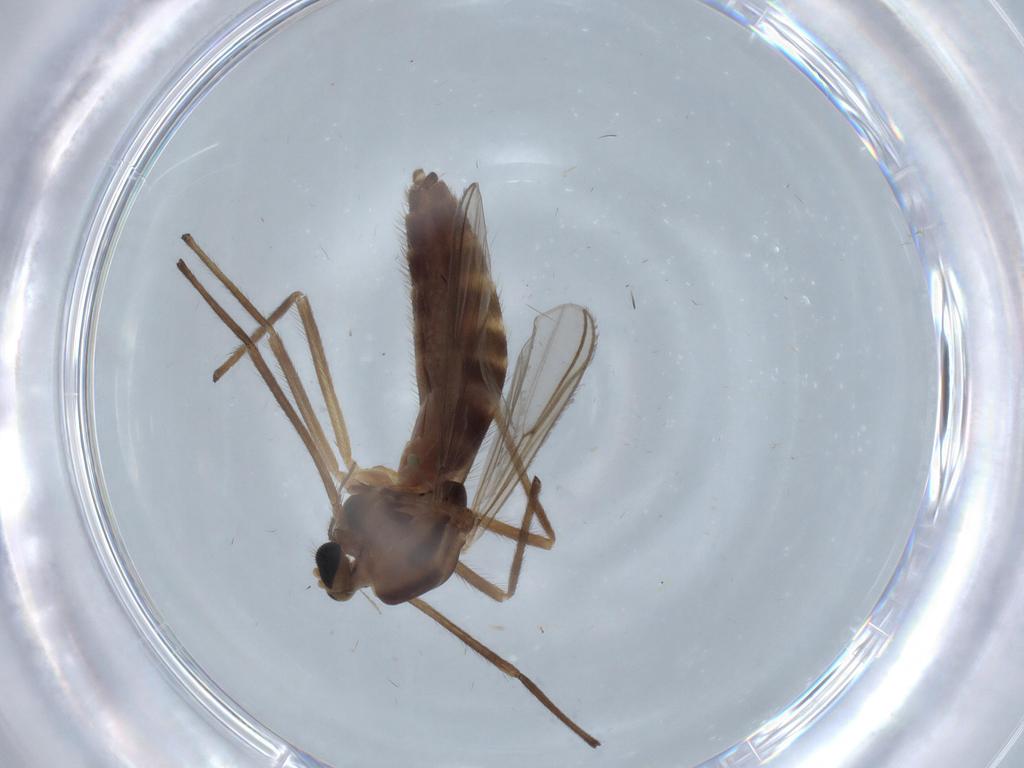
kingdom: Animalia
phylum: Arthropoda
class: Insecta
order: Diptera
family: Chironomidae
